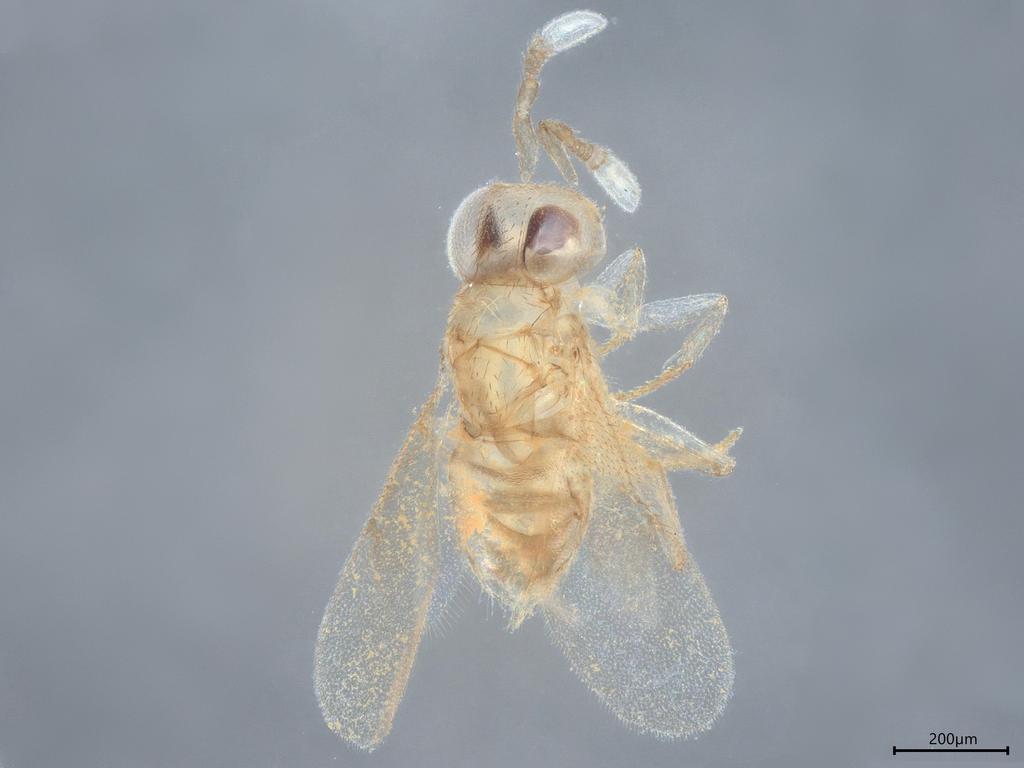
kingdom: Animalia
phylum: Arthropoda
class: Insecta
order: Hymenoptera
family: Encyrtidae
